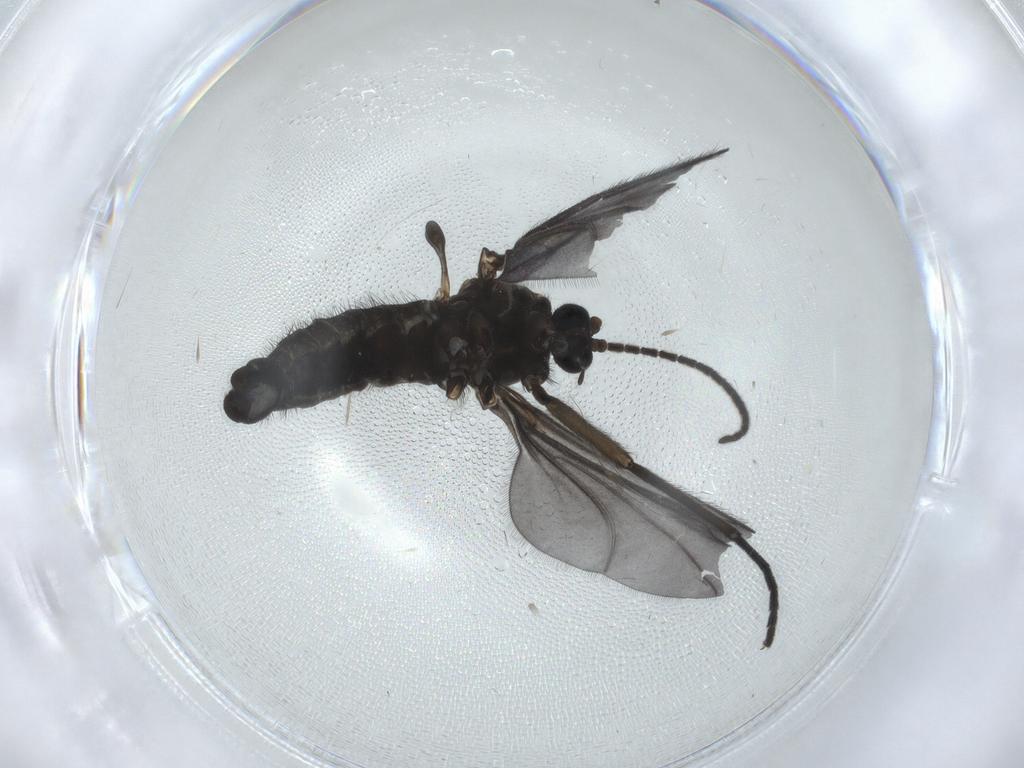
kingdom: Animalia
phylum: Arthropoda
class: Insecta
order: Diptera
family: Sciaridae
